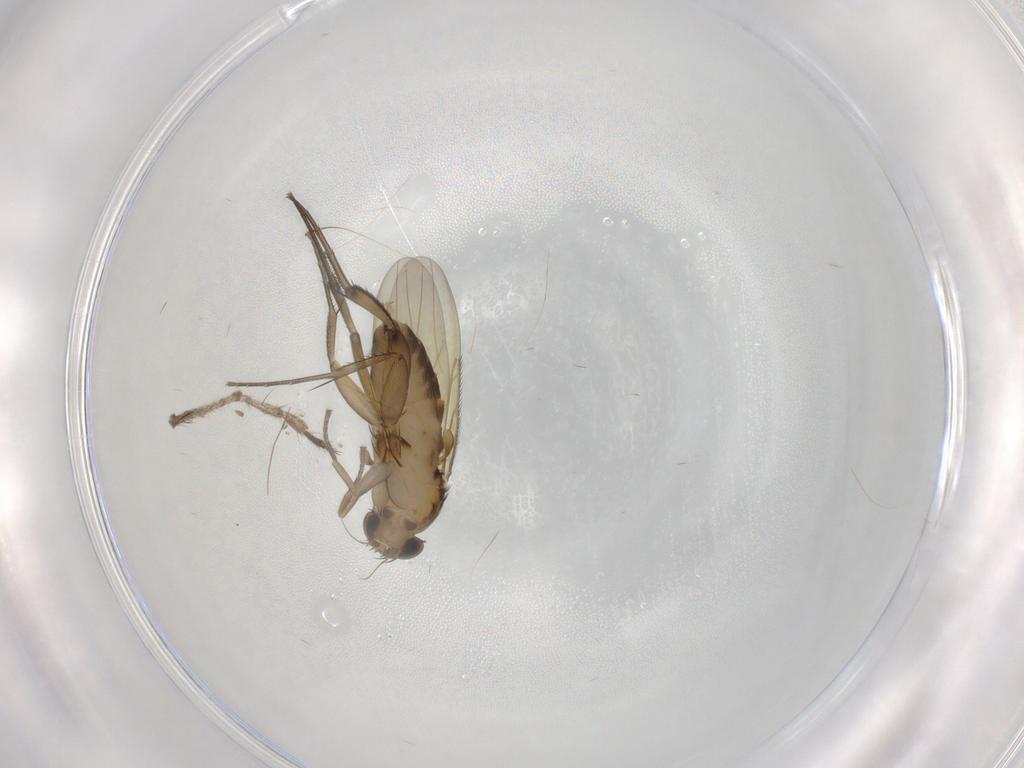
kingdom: Animalia
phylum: Arthropoda
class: Insecta
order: Diptera
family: Phoridae
